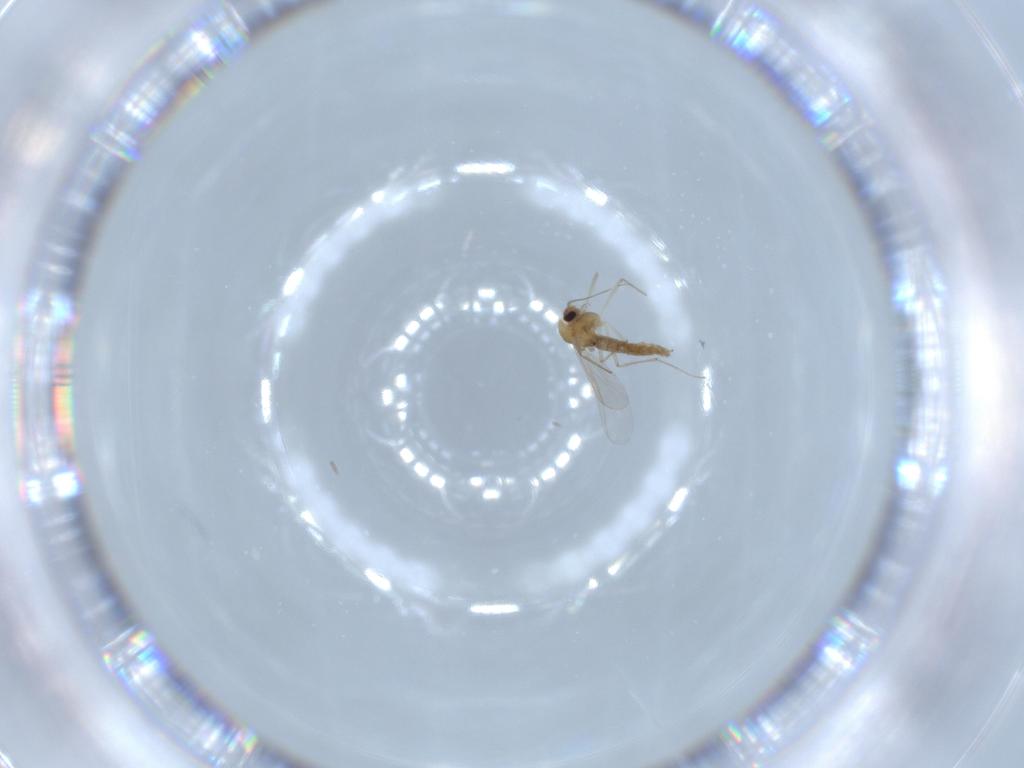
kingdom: Animalia
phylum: Arthropoda
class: Insecta
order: Diptera
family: Chironomidae
